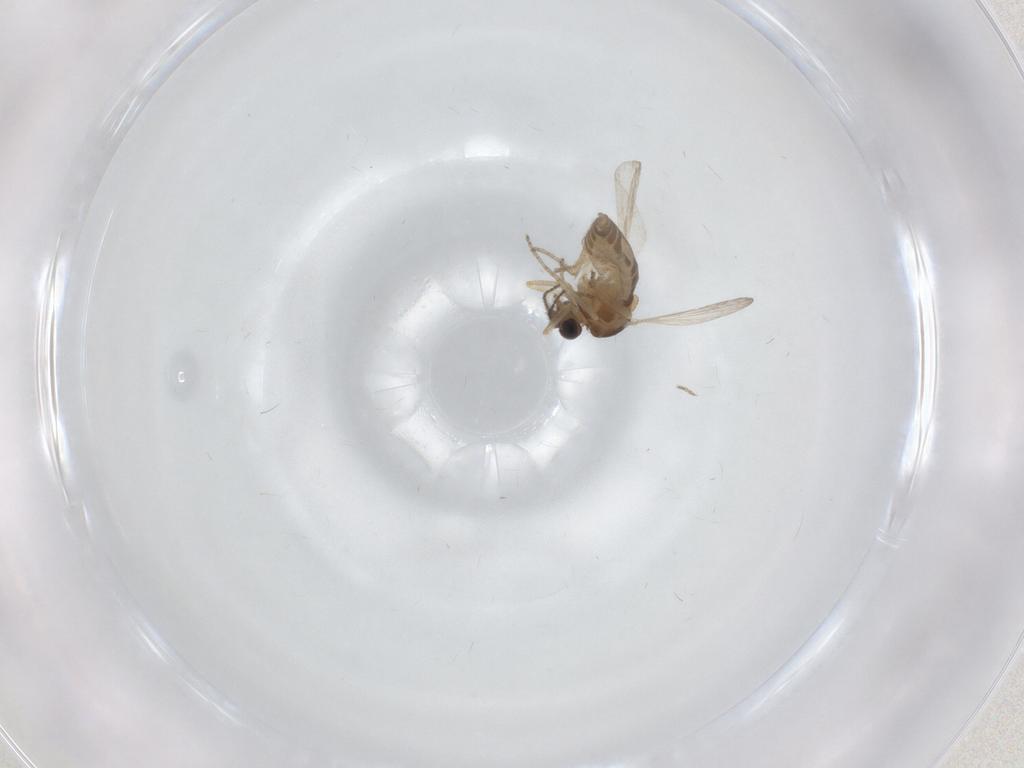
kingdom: Animalia
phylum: Arthropoda
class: Insecta
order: Diptera
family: Ceratopogonidae
